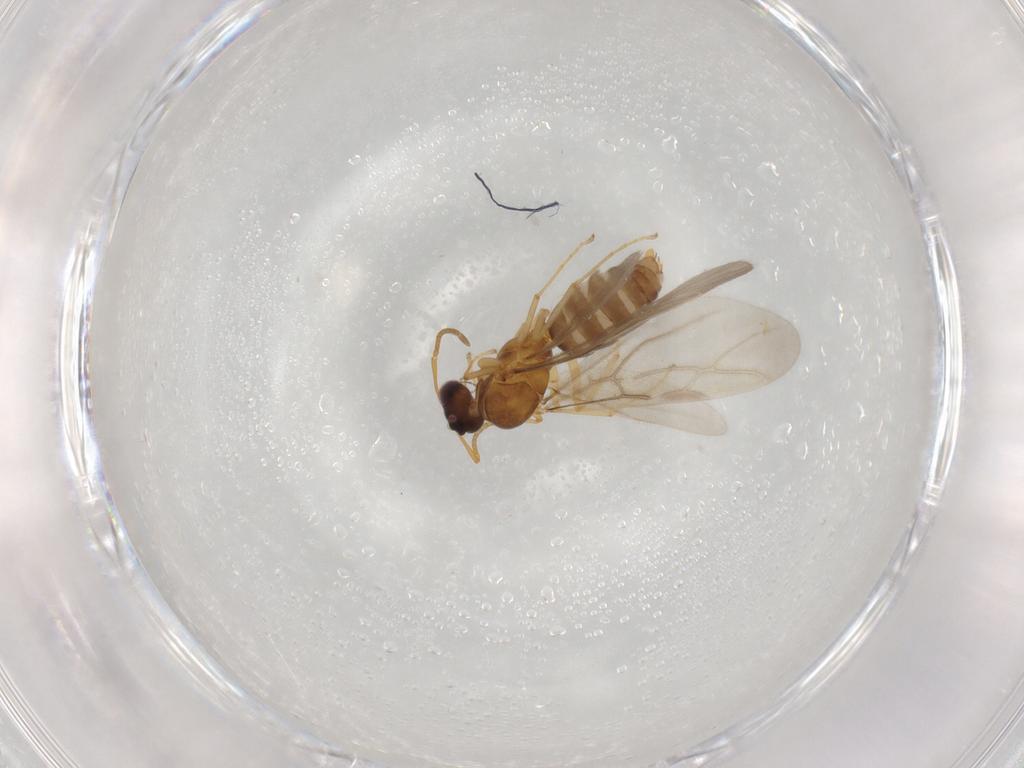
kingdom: Animalia
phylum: Arthropoda
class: Insecta
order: Hymenoptera
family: Formicidae
